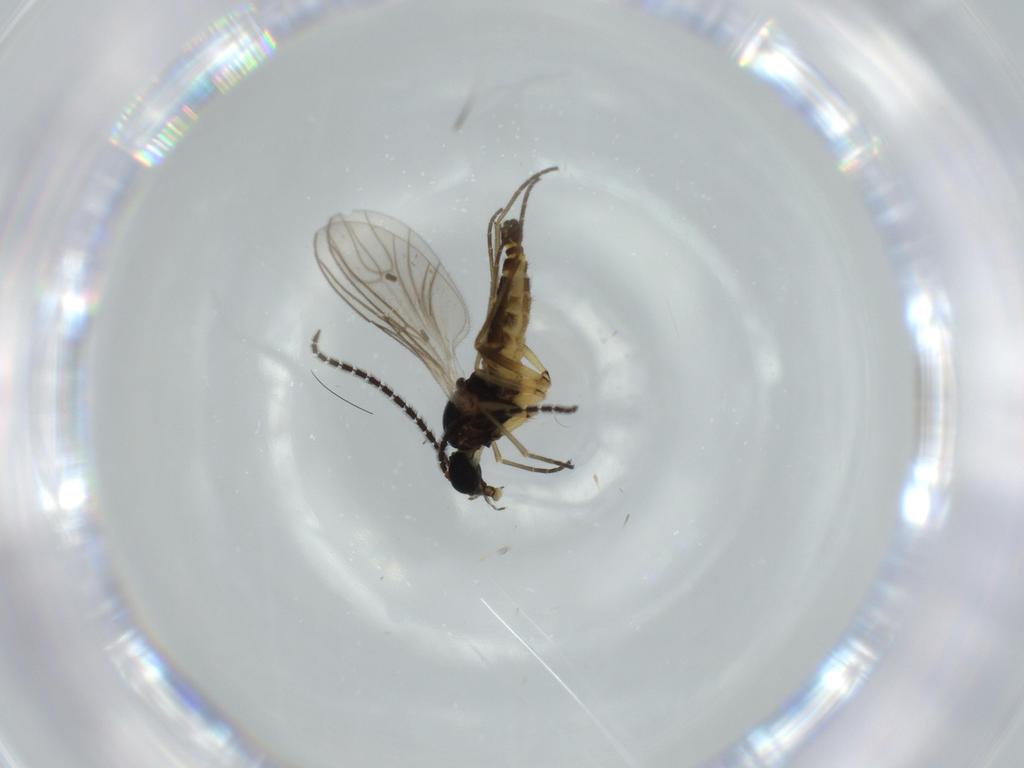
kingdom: Animalia
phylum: Arthropoda
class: Insecta
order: Diptera
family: Sciaridae
